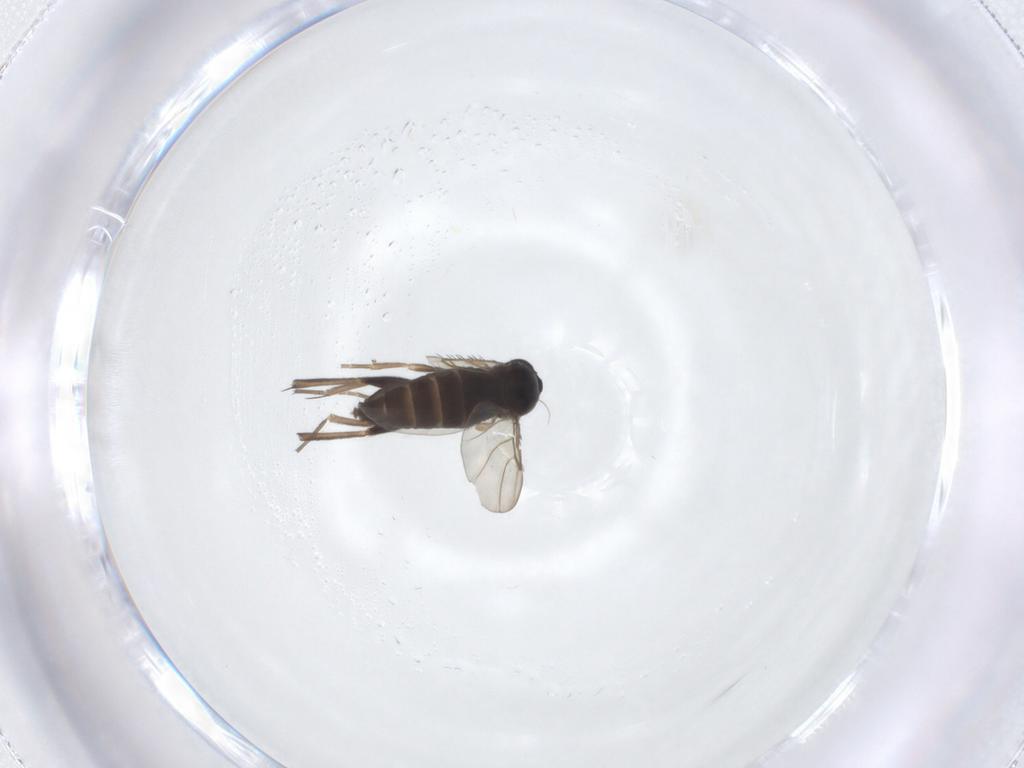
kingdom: Animalia
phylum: Arthropoda
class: Insecta
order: Diptera
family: Phoridae
